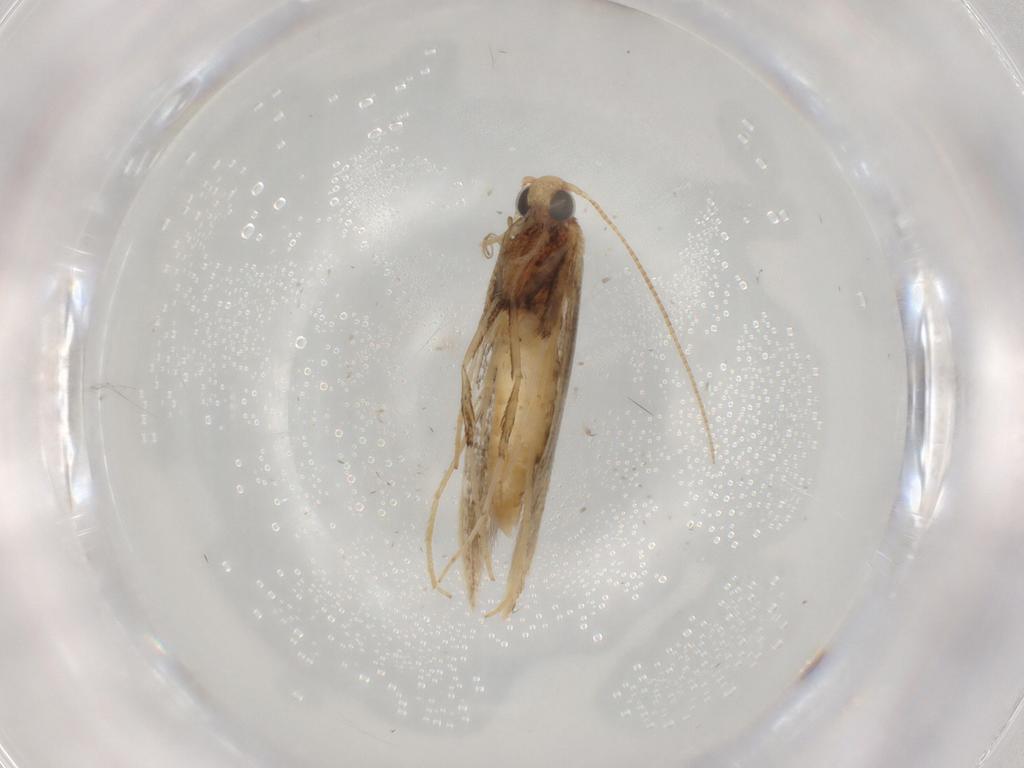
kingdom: Animalia
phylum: Arthropoda
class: Insecta
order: Lepidoptera
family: Gracillariidae
